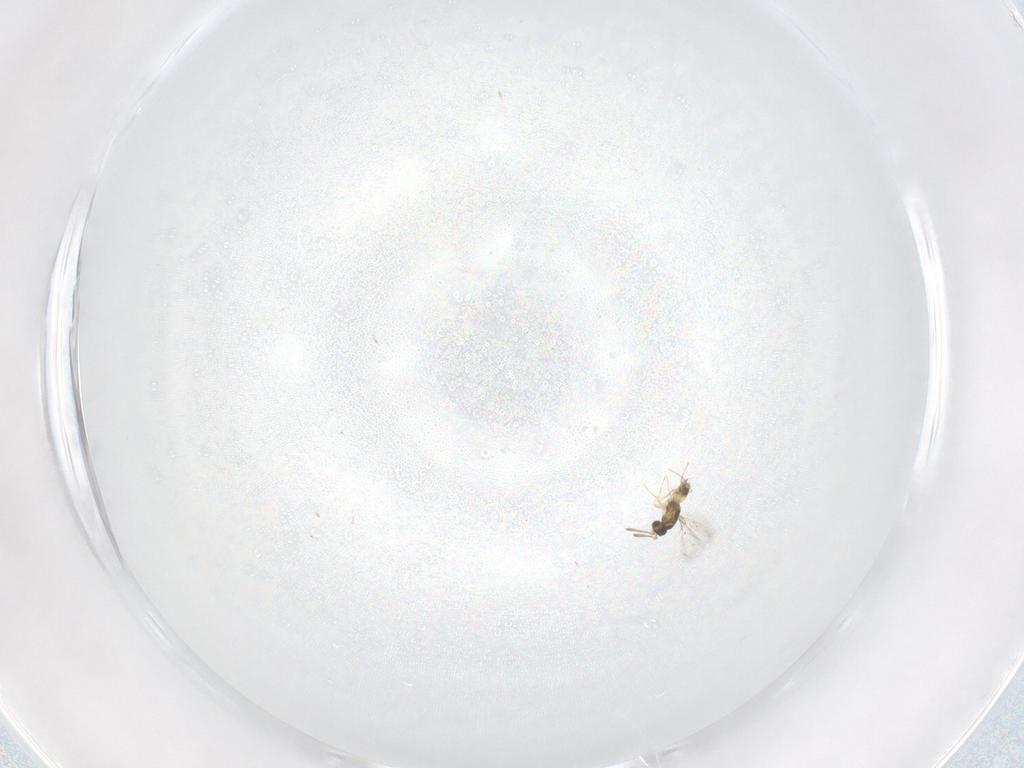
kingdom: Animalia
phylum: Arthropoda
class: Insecta
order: Hymenoptera
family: Mymaridae
